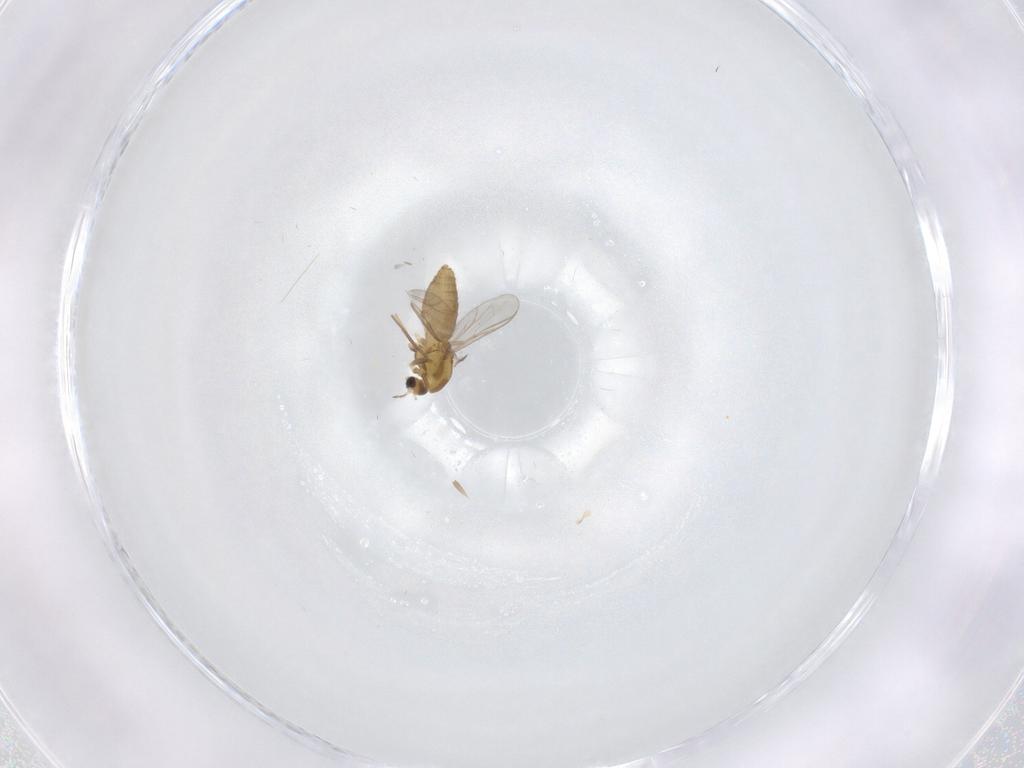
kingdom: Animalia
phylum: Arthropoda
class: Insecta
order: Diptera
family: Chironomidae
